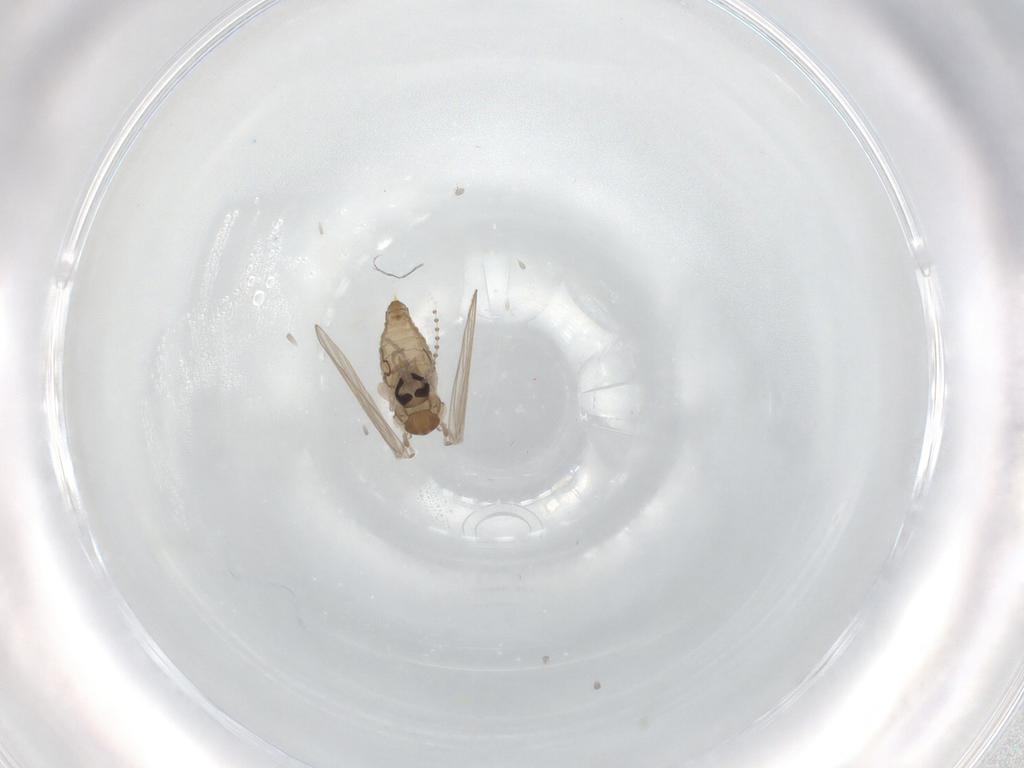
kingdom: Animalia
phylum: Arthropoda
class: Insecta
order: Diptera
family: Psychodidae
